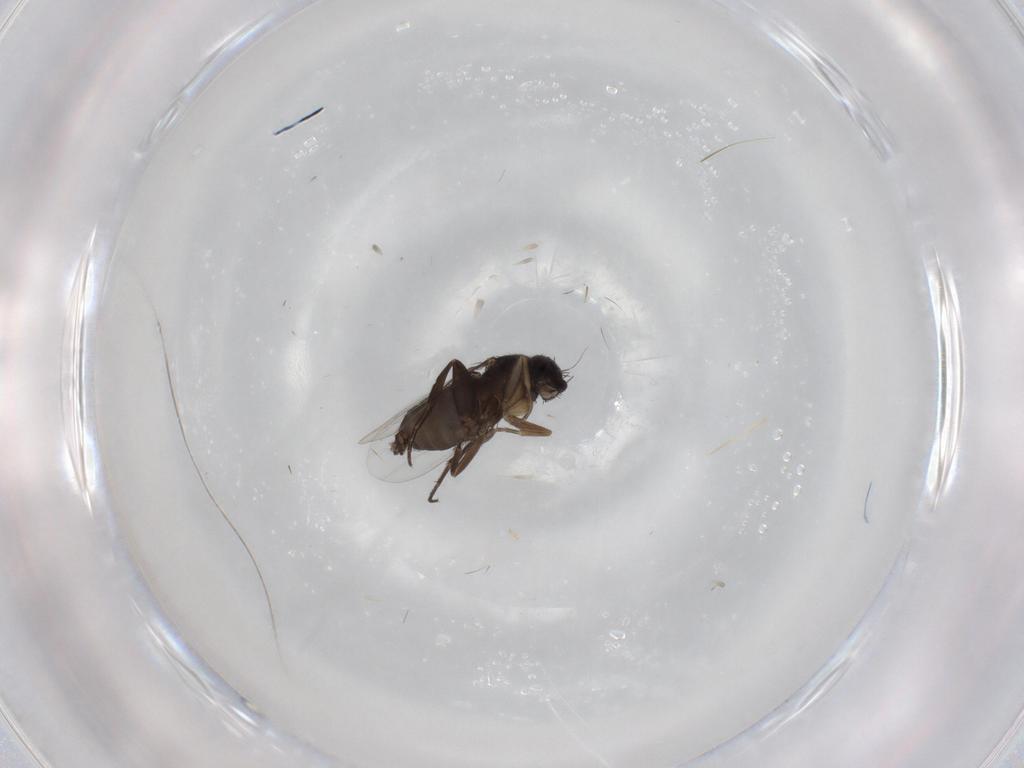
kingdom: Animalia
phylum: Arthropoda
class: Insecta
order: Diptera
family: Phoridae
